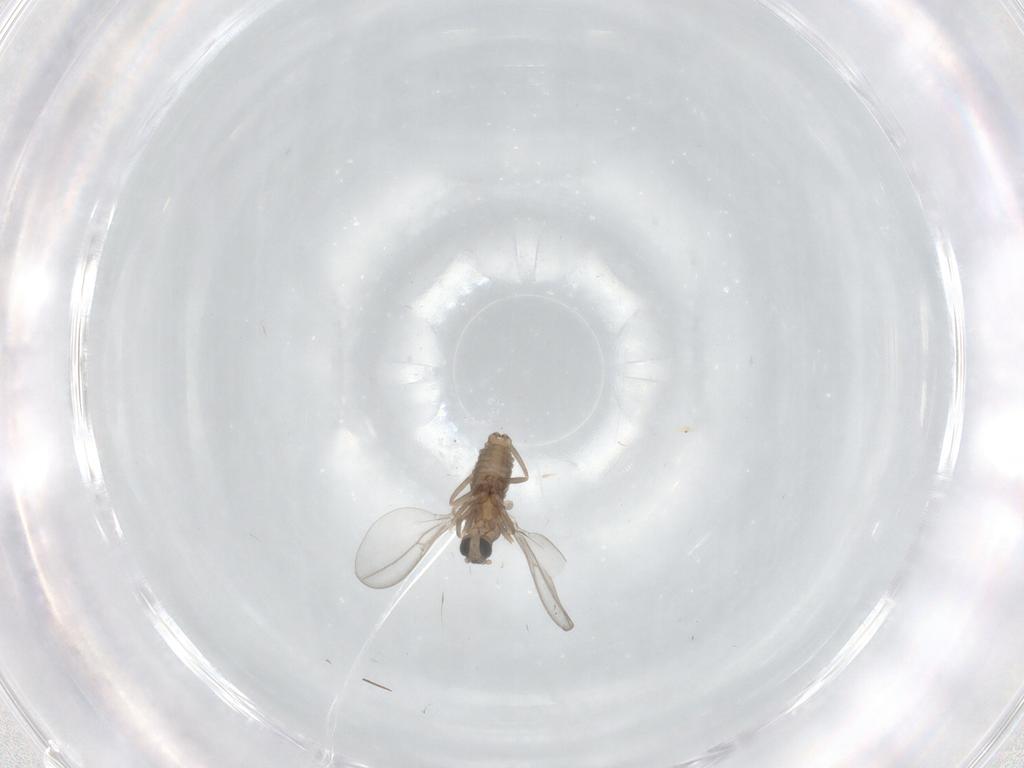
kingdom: Animalia
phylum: Arthropoda
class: Insecta
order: Diptera
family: Cecidomyiidae
